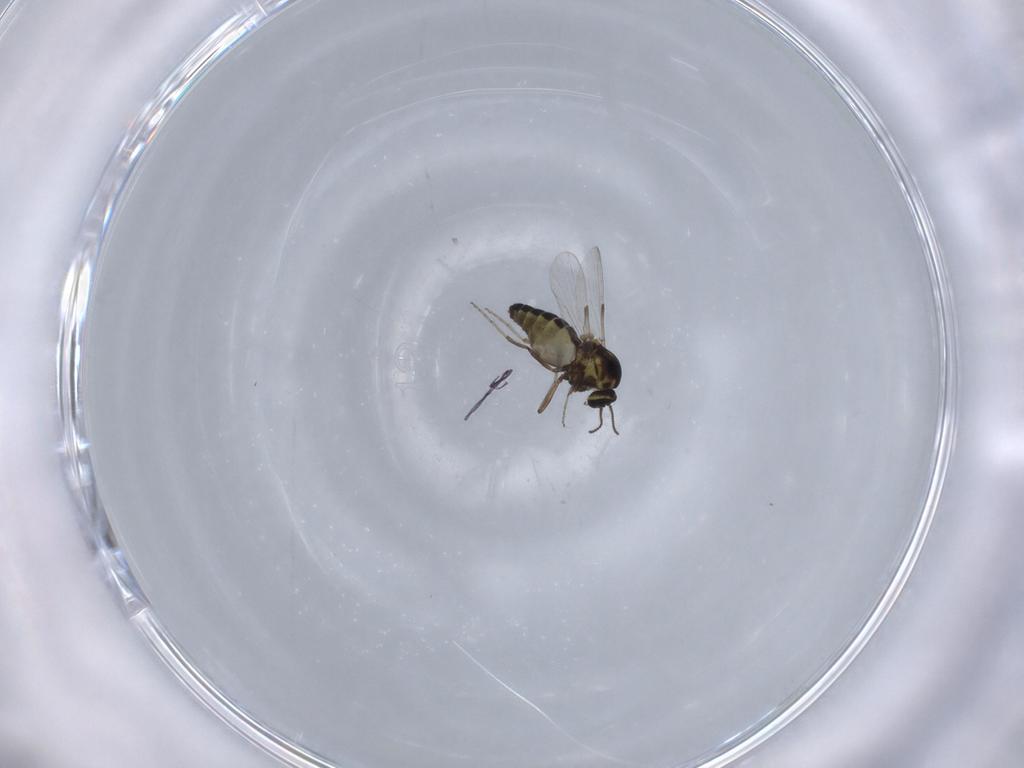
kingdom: Animalia
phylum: Arthropoda
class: Insecta
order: Diptera
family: Ceratopogonidae
